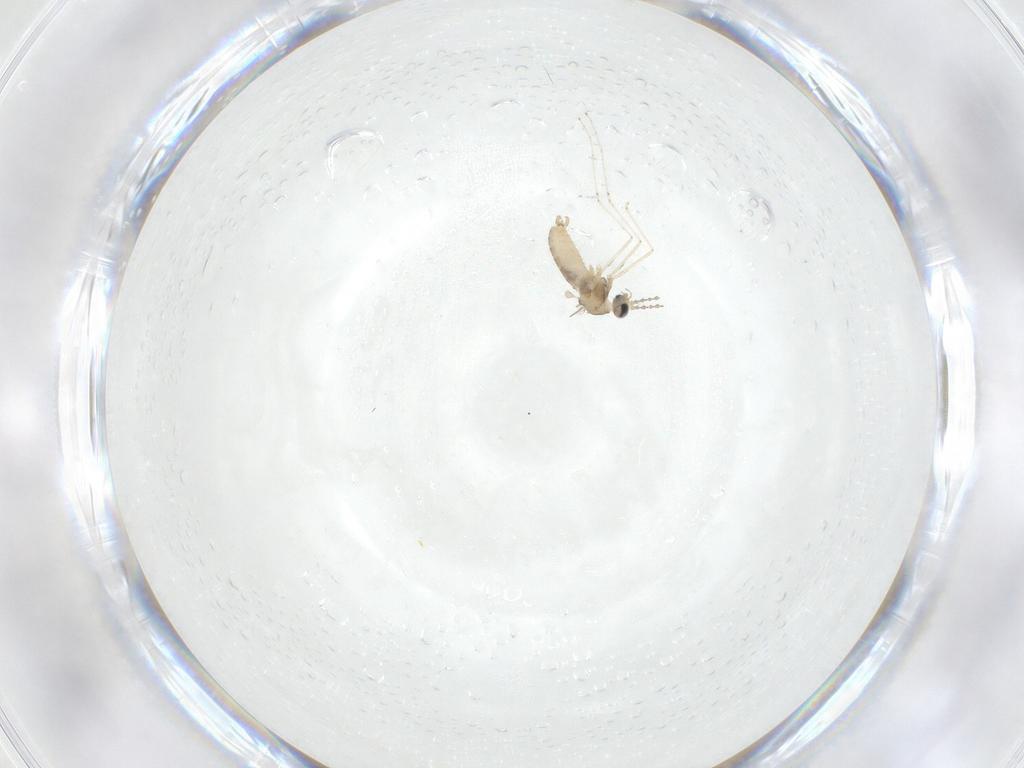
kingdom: Animalia
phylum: Arthropoda
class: Insecta
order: Diptera
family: Cecidomyiidae
